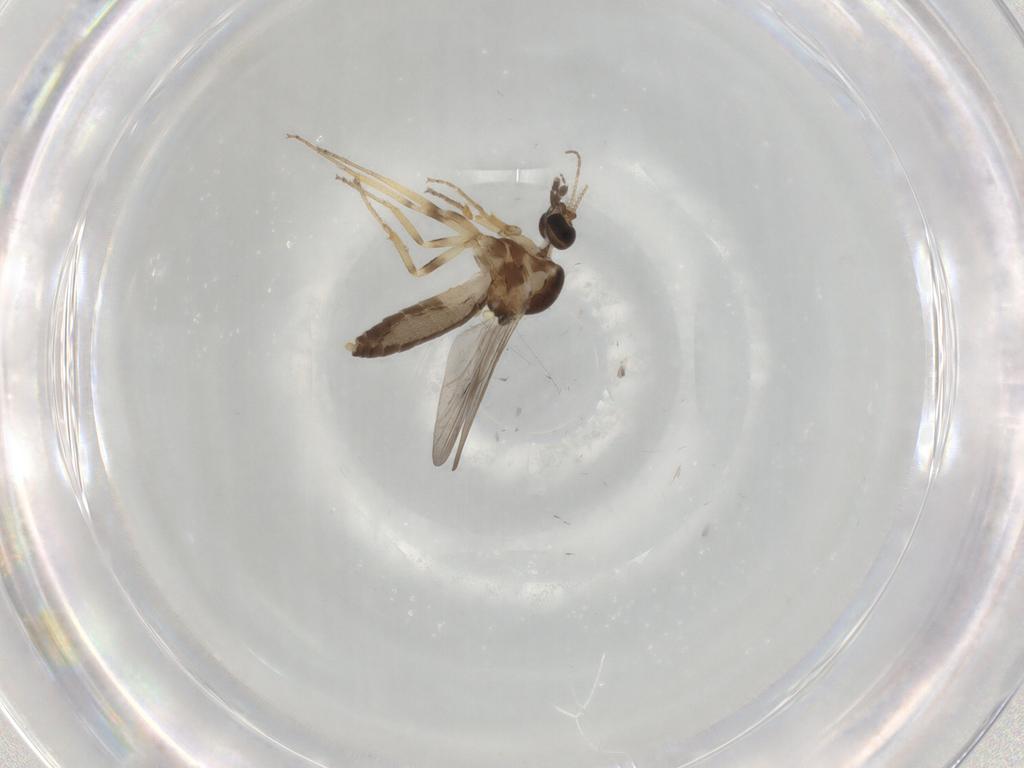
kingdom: Animalia
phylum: Arthropoda
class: Insecta
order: Diptera
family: Ceratopogonidae
